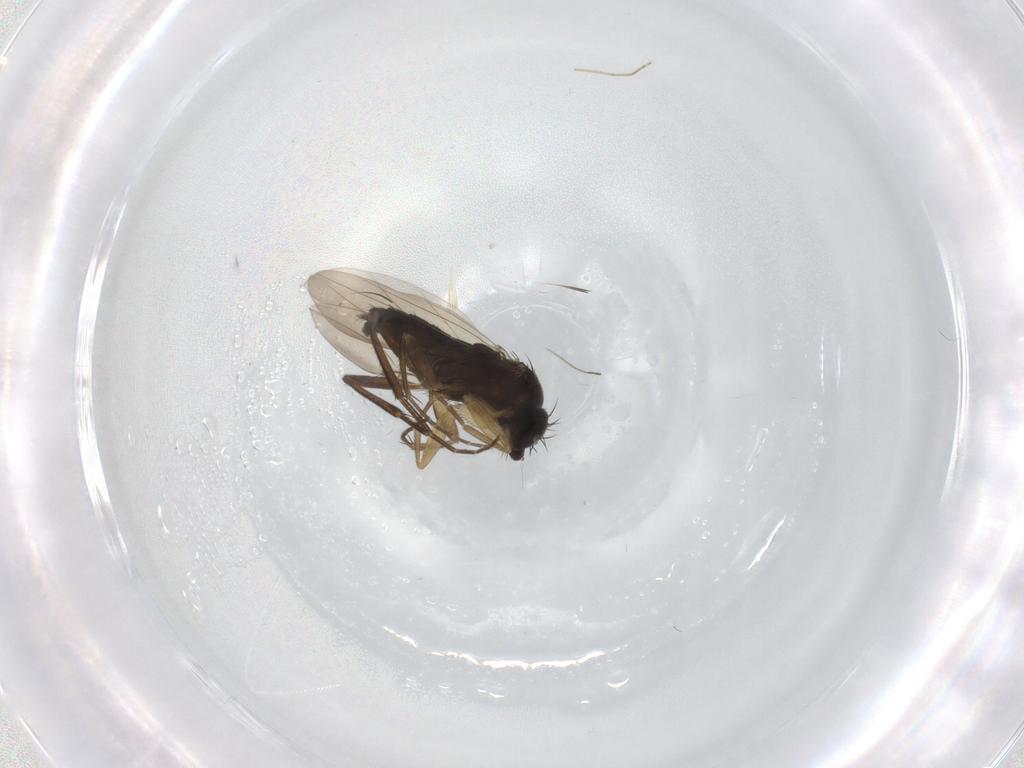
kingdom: Animalia
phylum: Arthropoda
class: Insecta
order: Diptera
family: Phoridae
